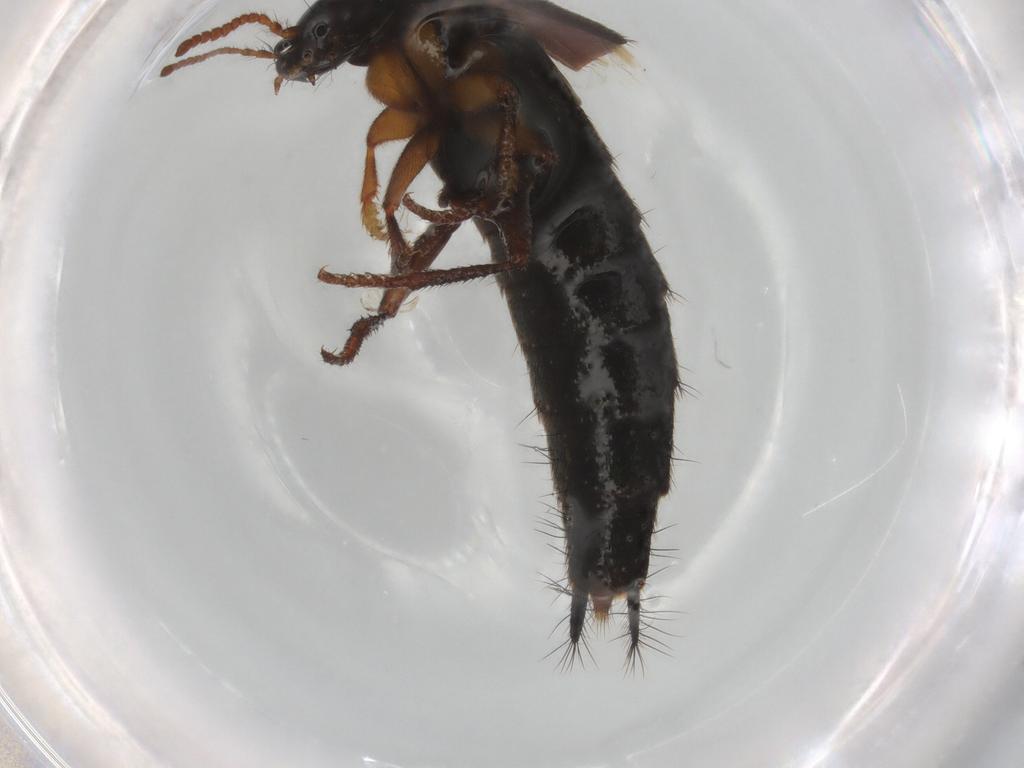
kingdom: Animalia
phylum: Arthropoda
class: Insecta
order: Coleoptera
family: Staphylinidae
